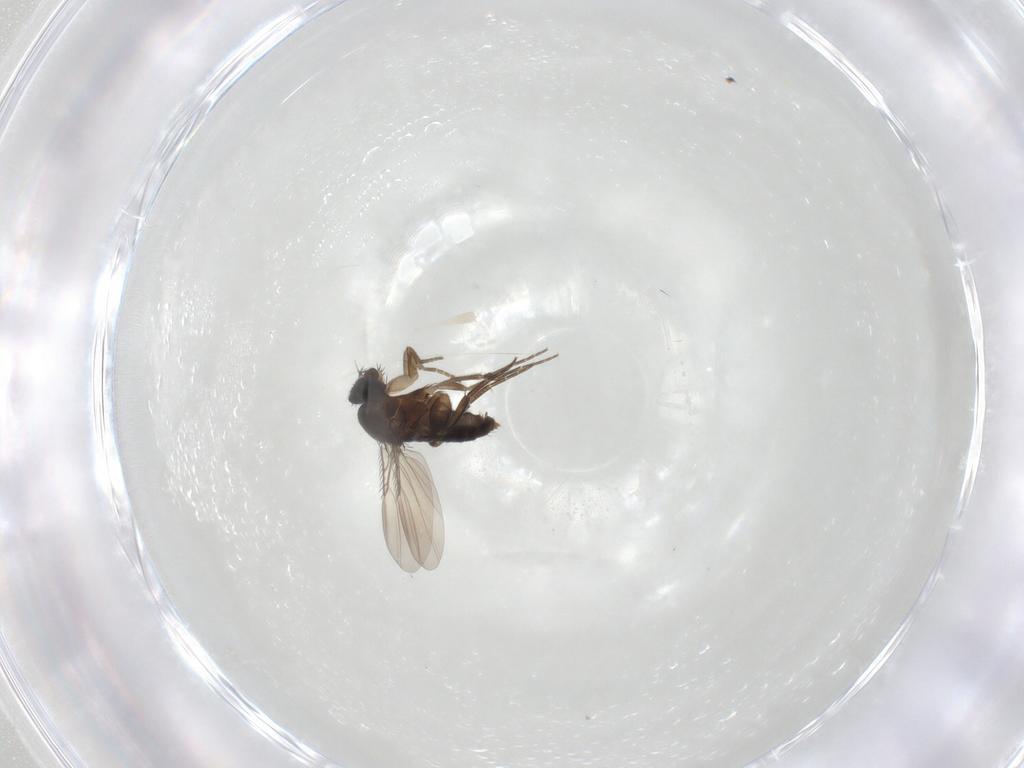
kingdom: Animalia
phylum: Arthropoda
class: Insecta
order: Diptera
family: Phoridae
